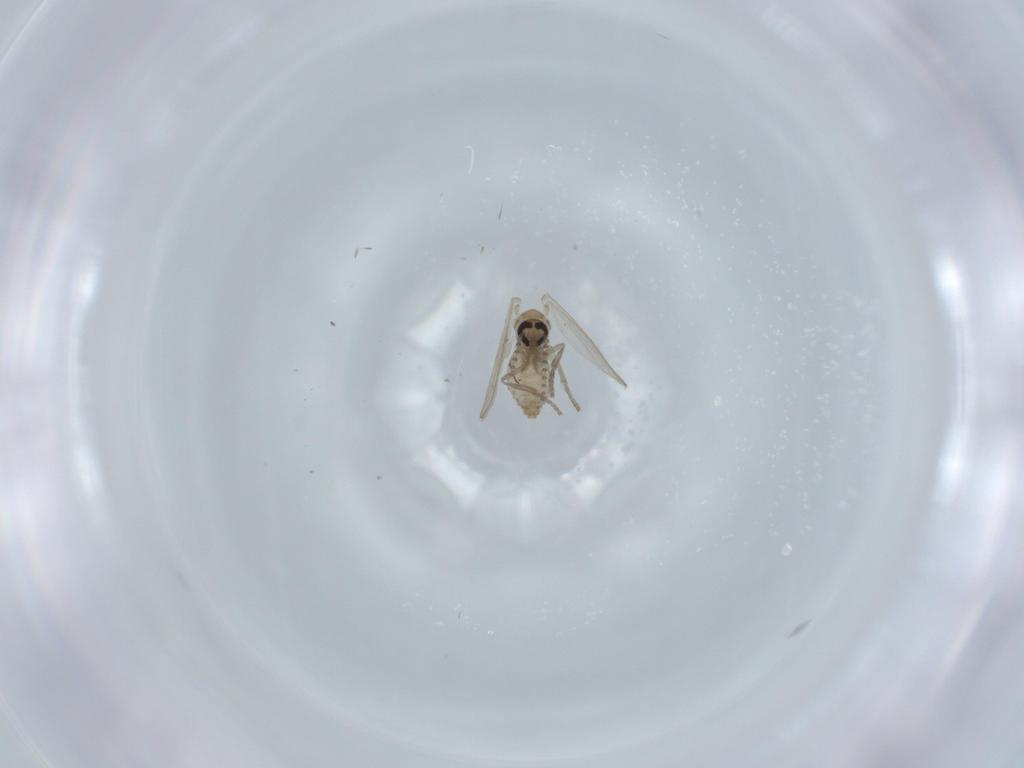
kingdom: Animalia
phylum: Arthropoda
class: Insecta
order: Diptera
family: Psychodidae
